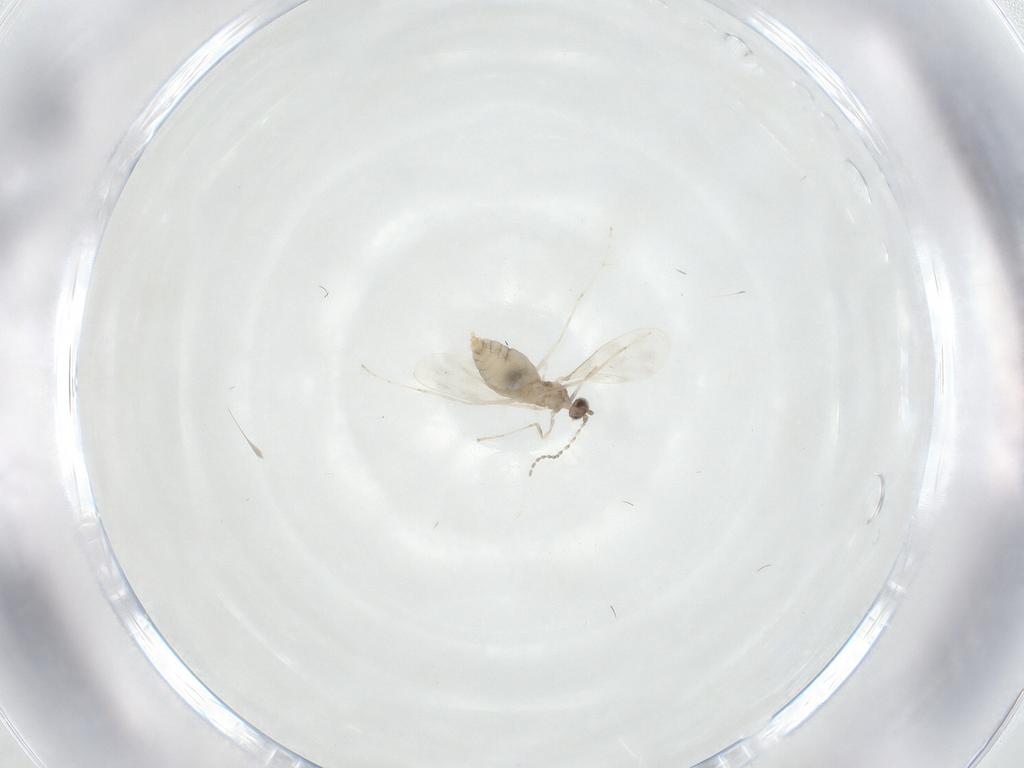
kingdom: Animalia
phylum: Arthropoda
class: Insecta
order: Diptera
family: Cecidomyiidae
